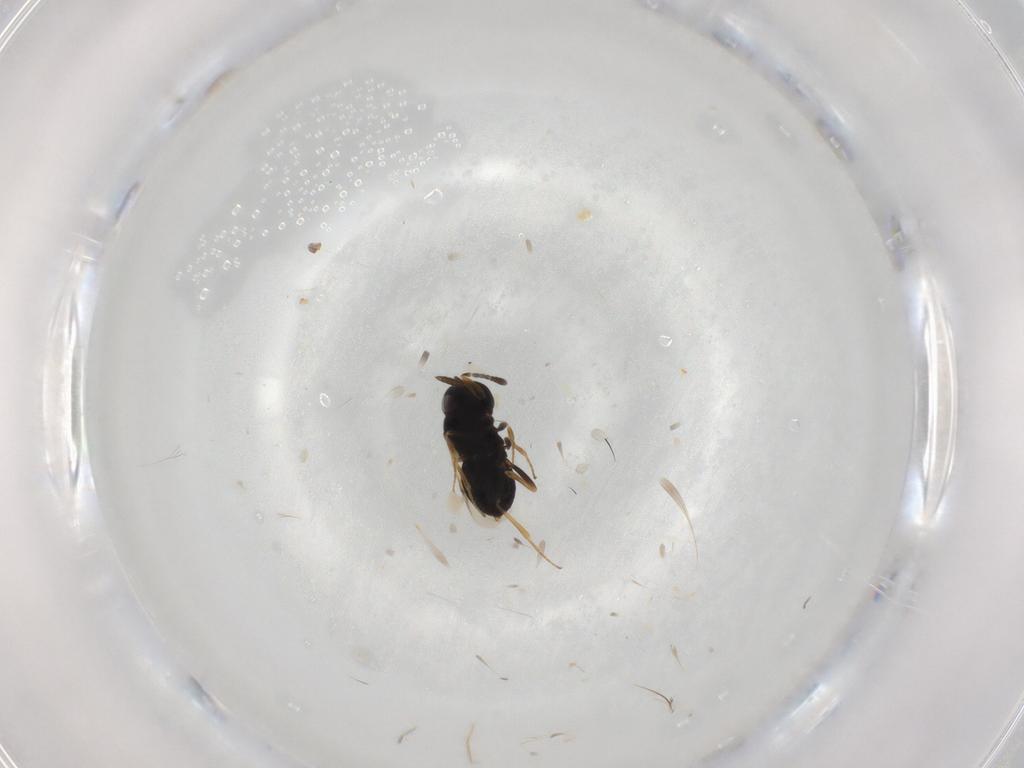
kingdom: Animalia
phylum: Arthropoda
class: Insecta
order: Hymenoptera
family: Scelionidae
